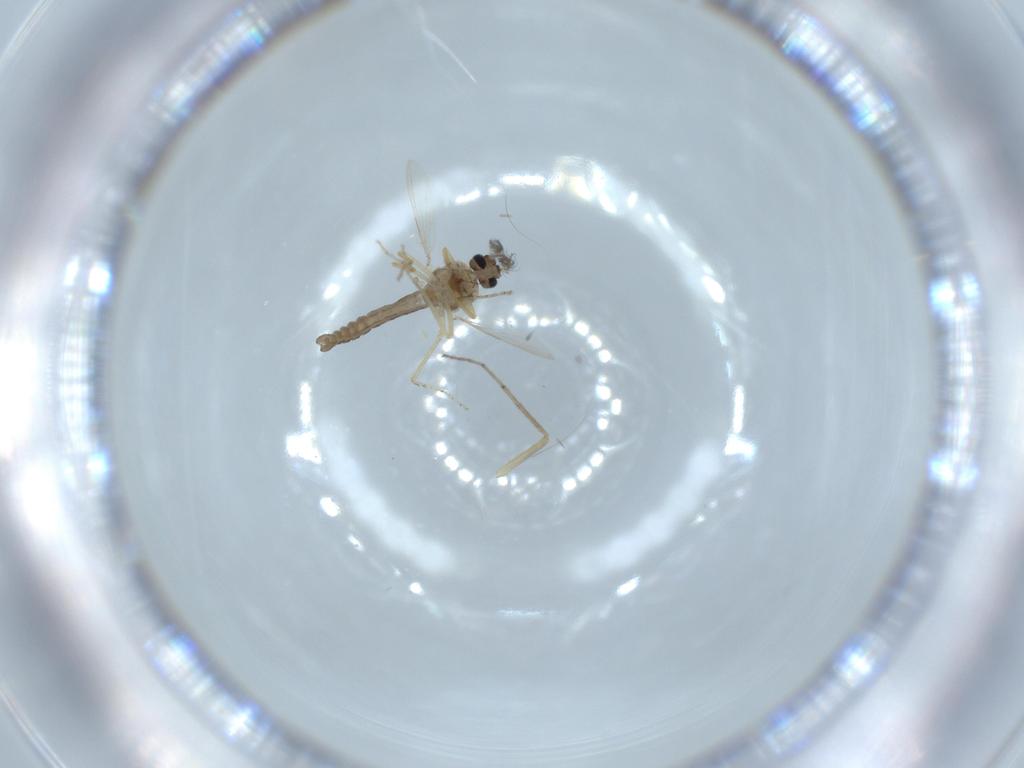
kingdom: Animalia
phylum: Arthropoda
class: Insecta
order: Diptera
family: Ceratopogonidae
